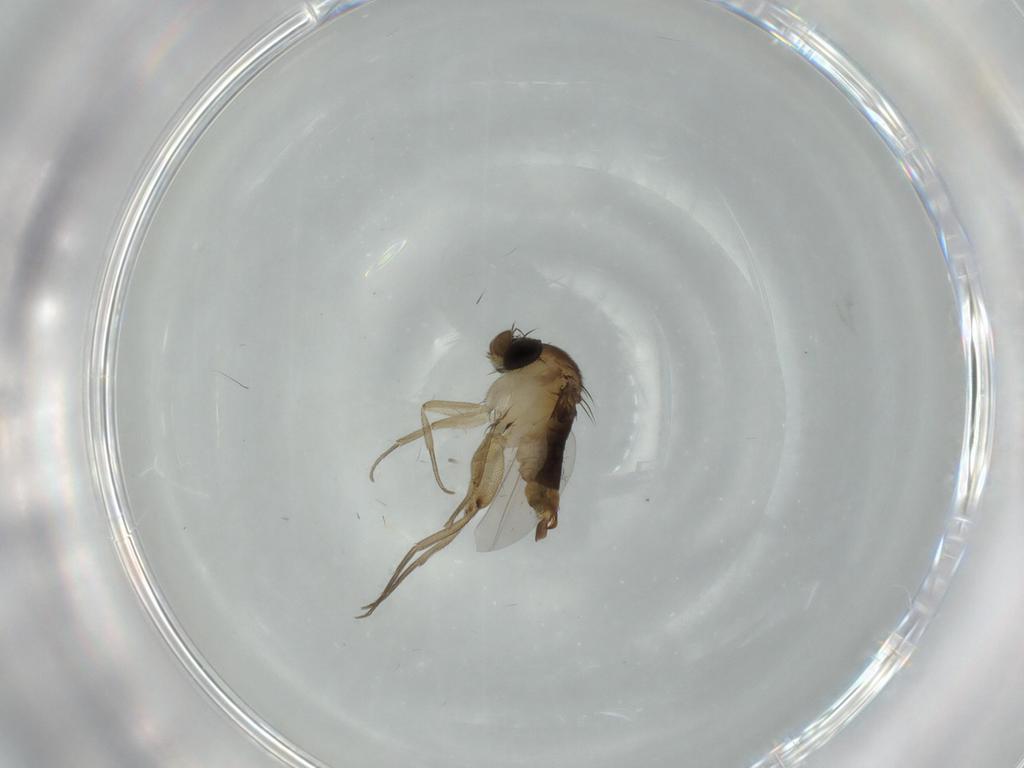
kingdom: Animalia
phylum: Arthropoda
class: Insecta
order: Diptera
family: Phoridae
